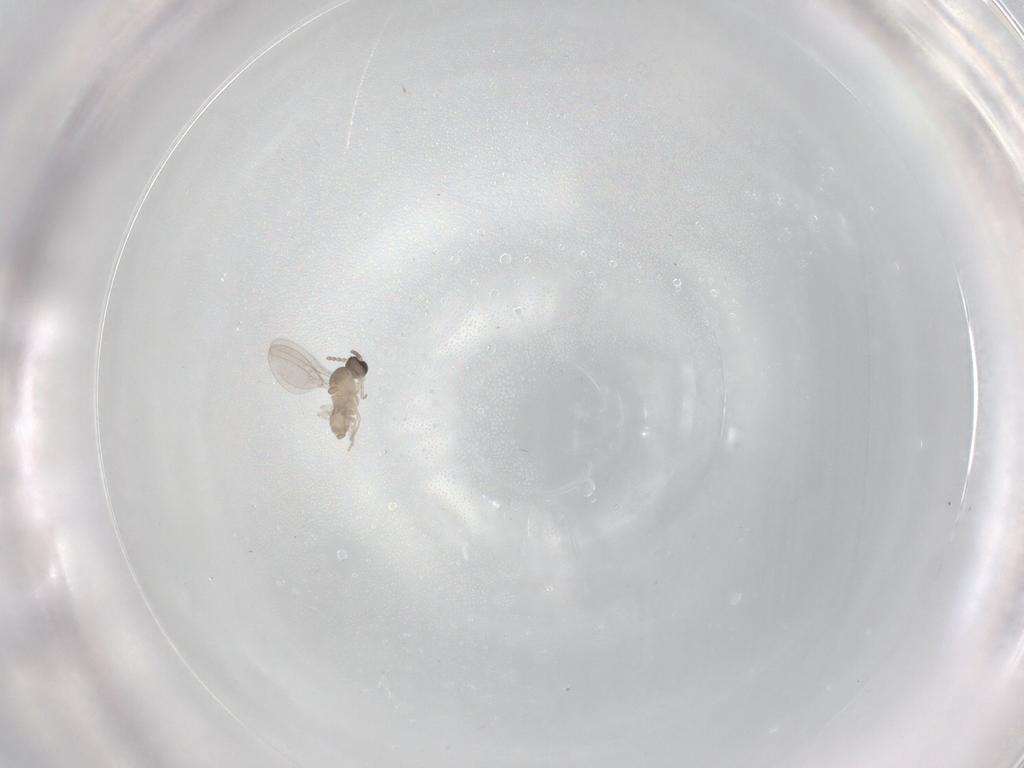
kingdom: Animalia
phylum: Arthropoda
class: Insecta
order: Diptera
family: Cecidomyiidae
